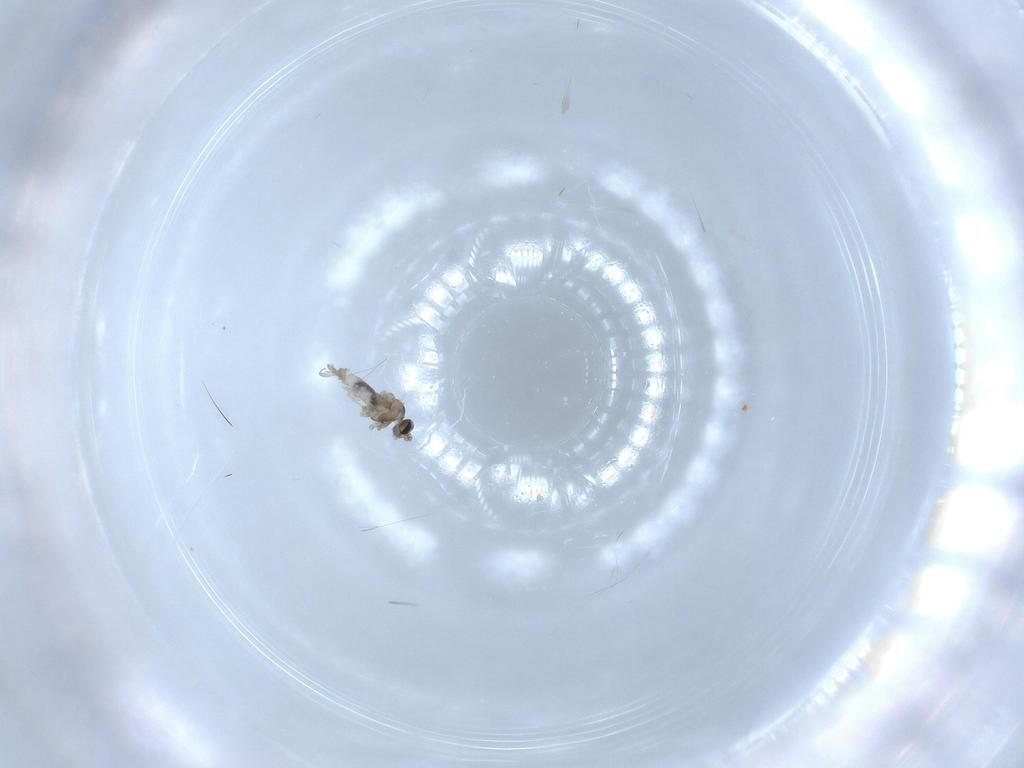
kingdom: Animalia
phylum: Arthropoda
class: Insecta
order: Diptera
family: Cecidomyiidae
